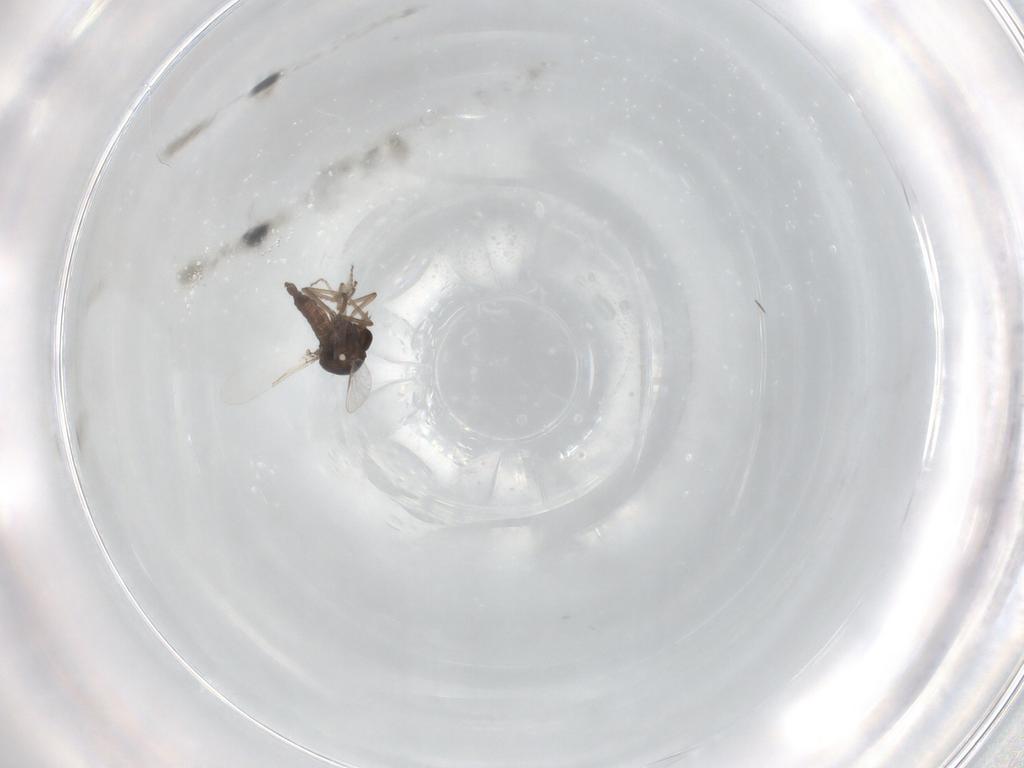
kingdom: Animalia
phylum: Arthropoda
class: Insecta
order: Diptera
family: Ceratopogonidae
